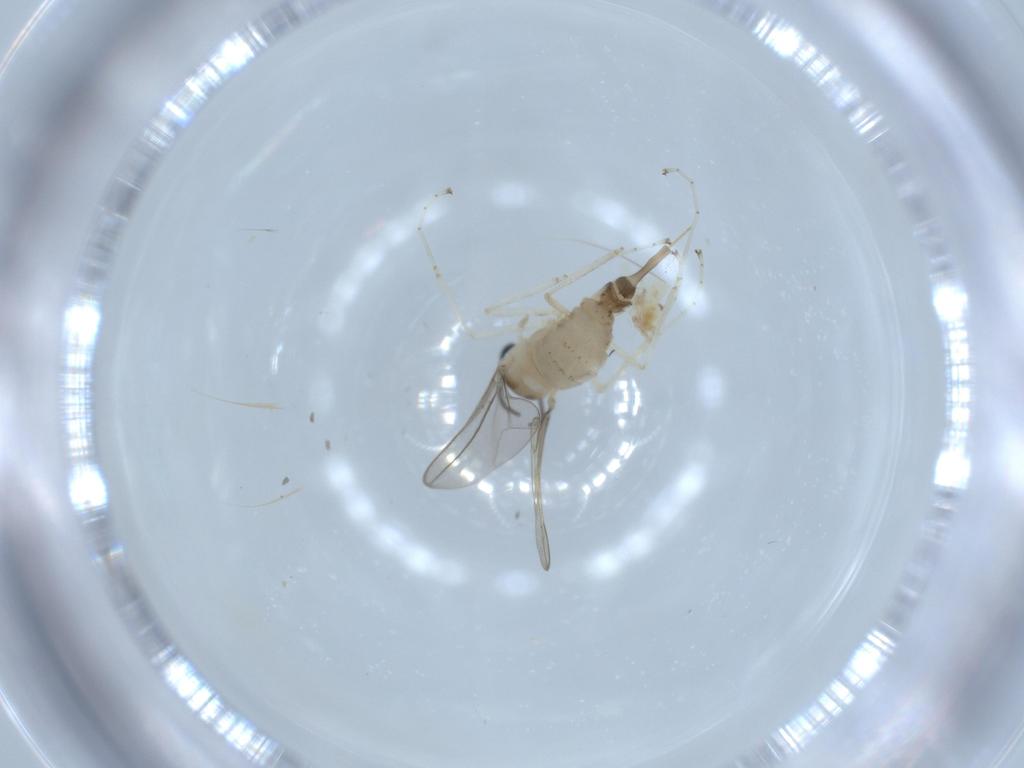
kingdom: Animalia
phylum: Arthropoda
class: Insecta
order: Diptera
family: Cecidomyiidae
